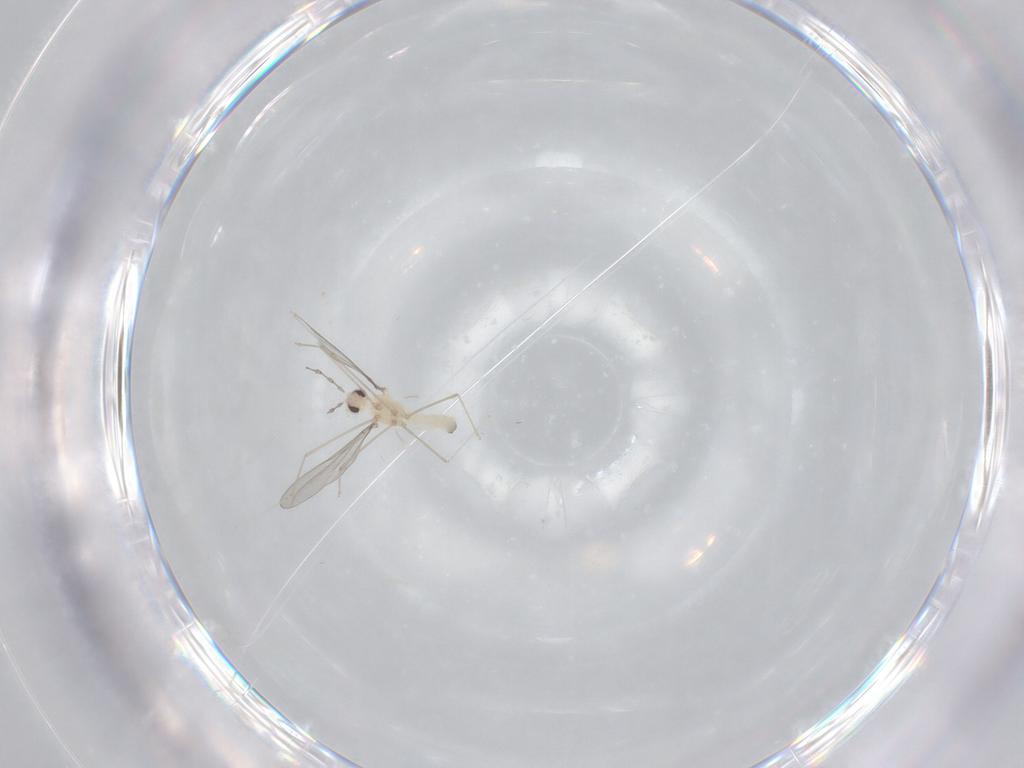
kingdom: Animalia
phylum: Arthropoda
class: Insecta
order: Diptera
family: Cecidomyiidae
